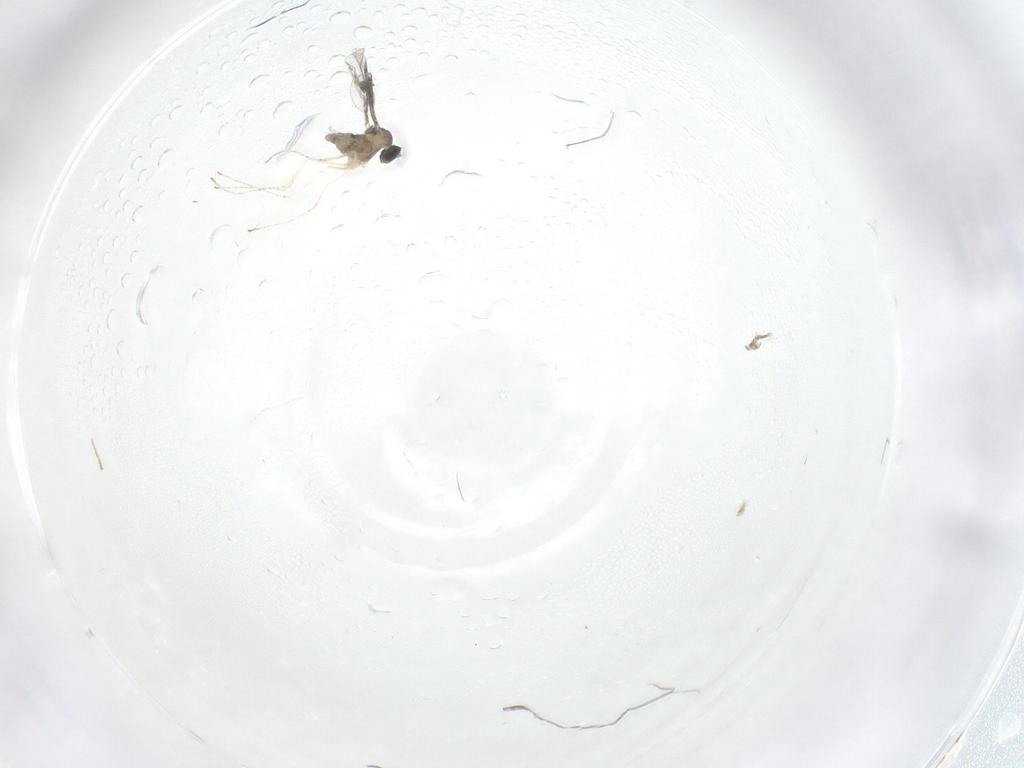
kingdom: Animalia
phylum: Arthropoda
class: Insecta
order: Diptera
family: Cecidomyiidae
